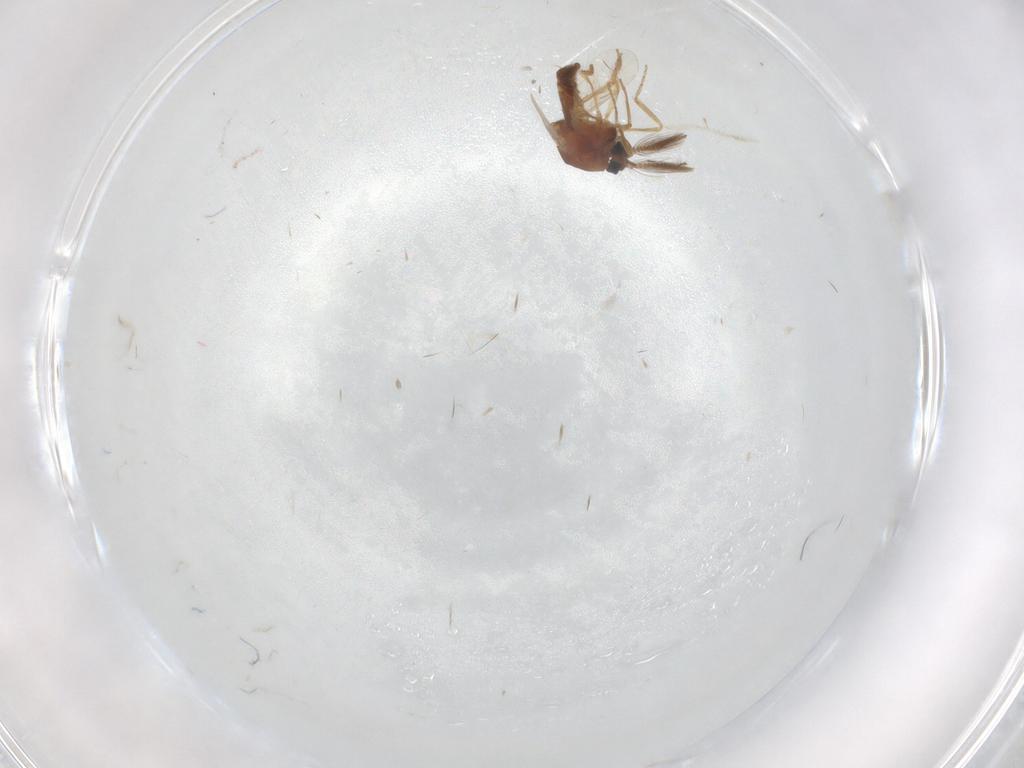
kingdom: Animalia
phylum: Arthropoda
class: Insecta
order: Diptera
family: Ceratopogonidae
